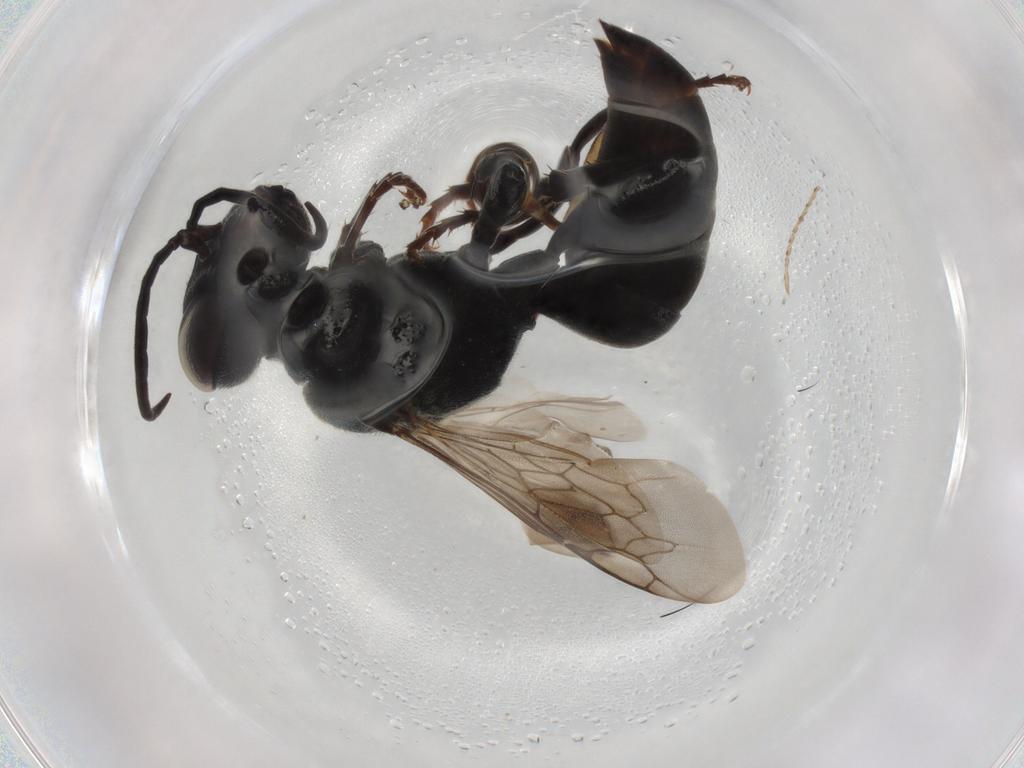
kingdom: Animalia
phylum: Arthropoda
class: Insecta
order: Hymenoptera
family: Crabronidae
